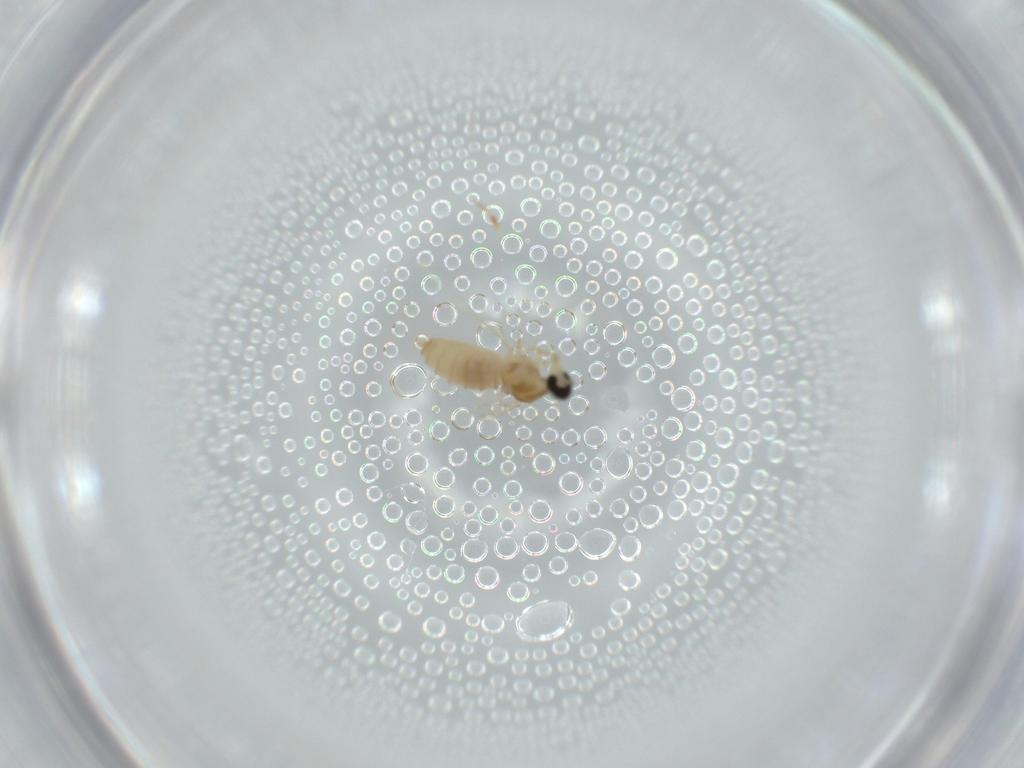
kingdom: Animalia
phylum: Arthropoda
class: Insecta
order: Diptera
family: Cecidomyiidae
